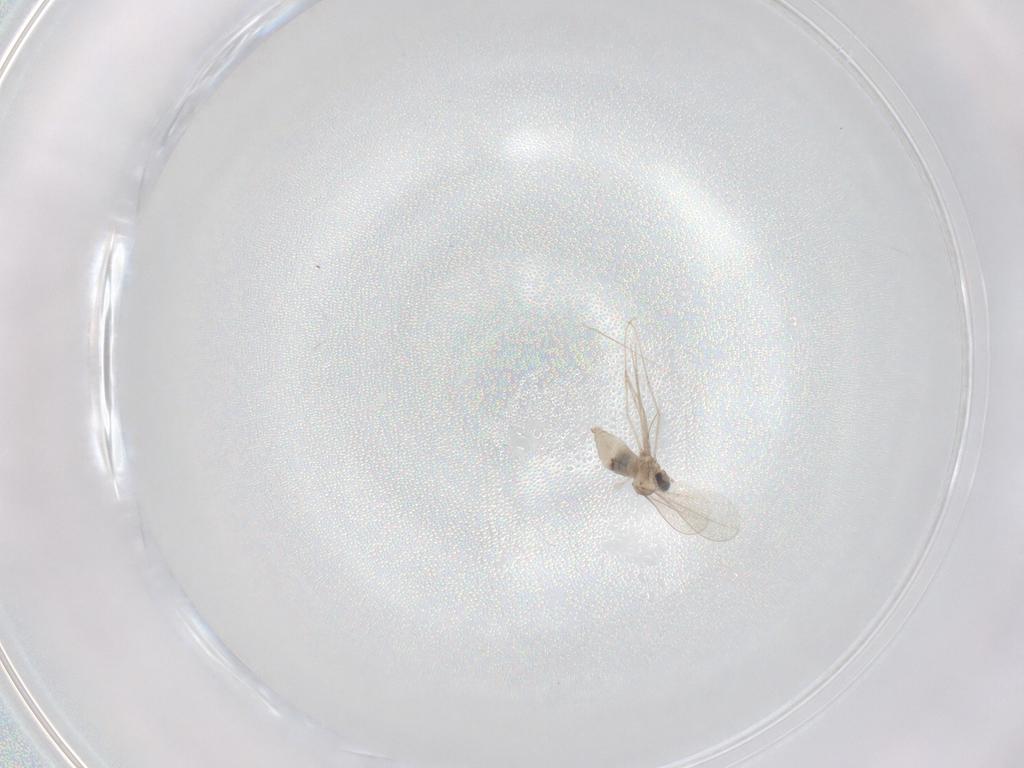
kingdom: Animalia
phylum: Arthropoda
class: Insecta
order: Diptera
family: Cecidomyiidae
